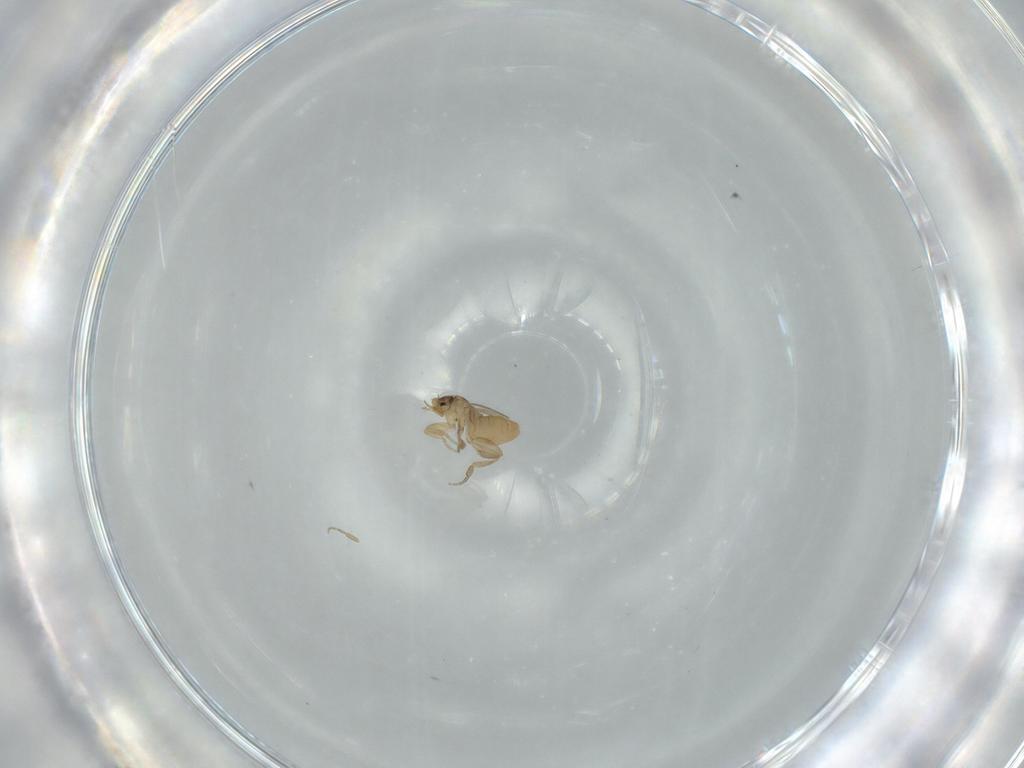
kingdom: Animalia
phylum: Arthropoda
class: Insecta
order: Diptera
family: Phoridae
